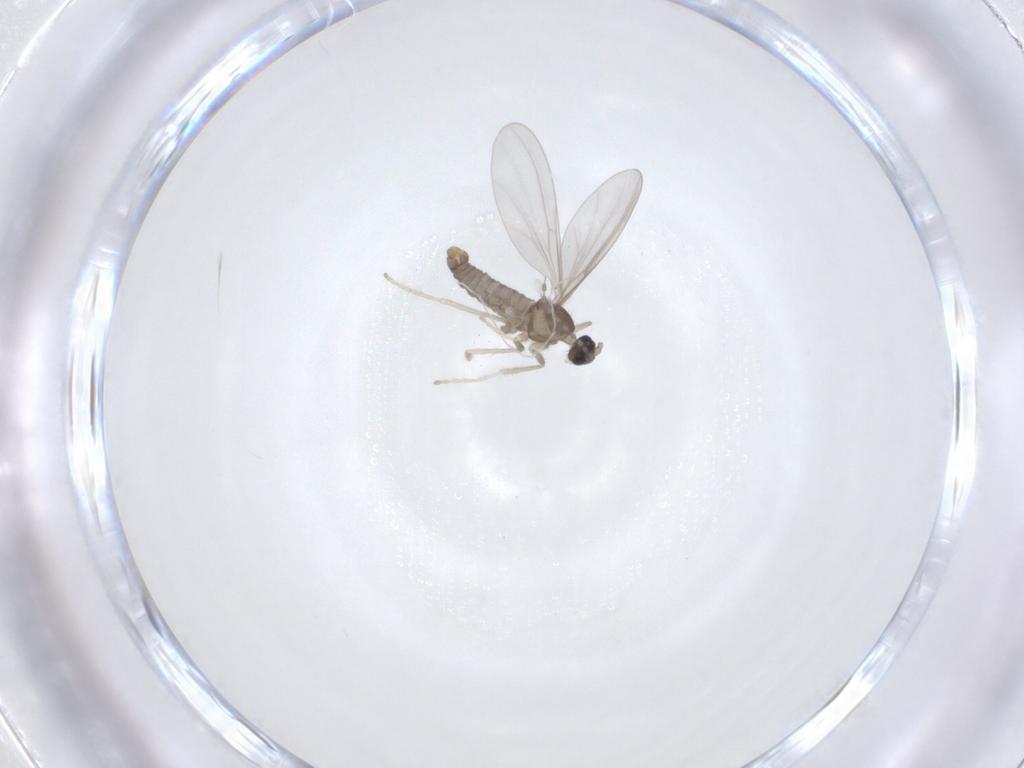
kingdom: Animalia
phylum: Arthropoda
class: Insecta
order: Diptera
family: Cecidomyiidae
